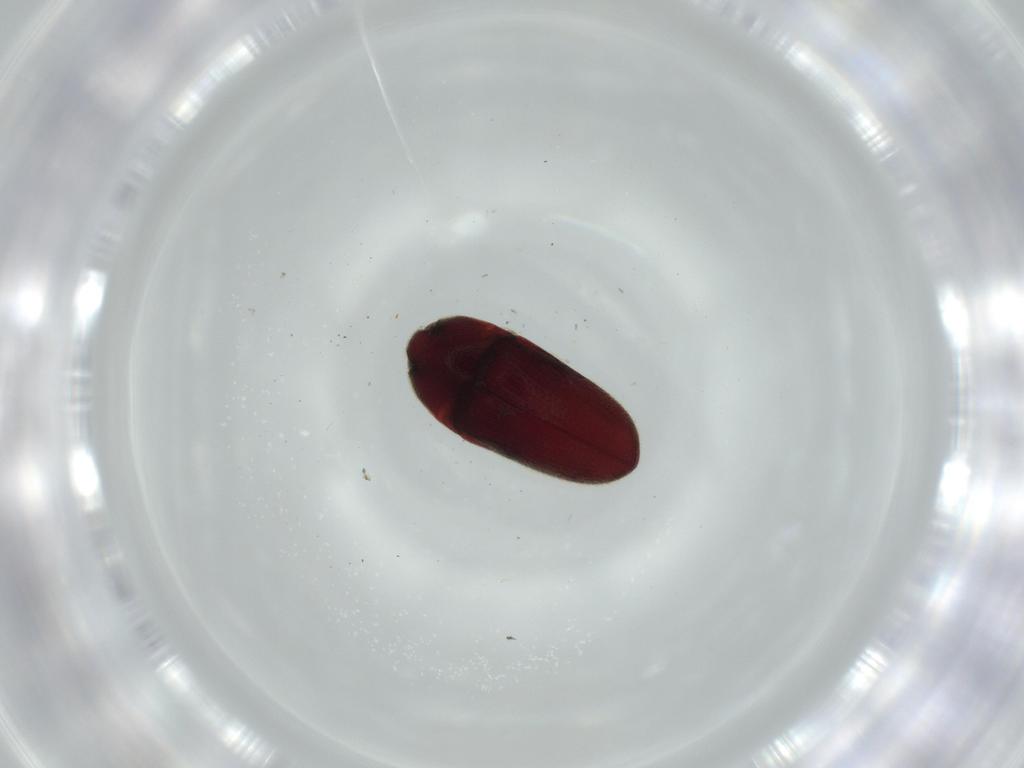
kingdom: Animalia
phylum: Arthropoda
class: Insecta
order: Coleoptera
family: Throscidae
